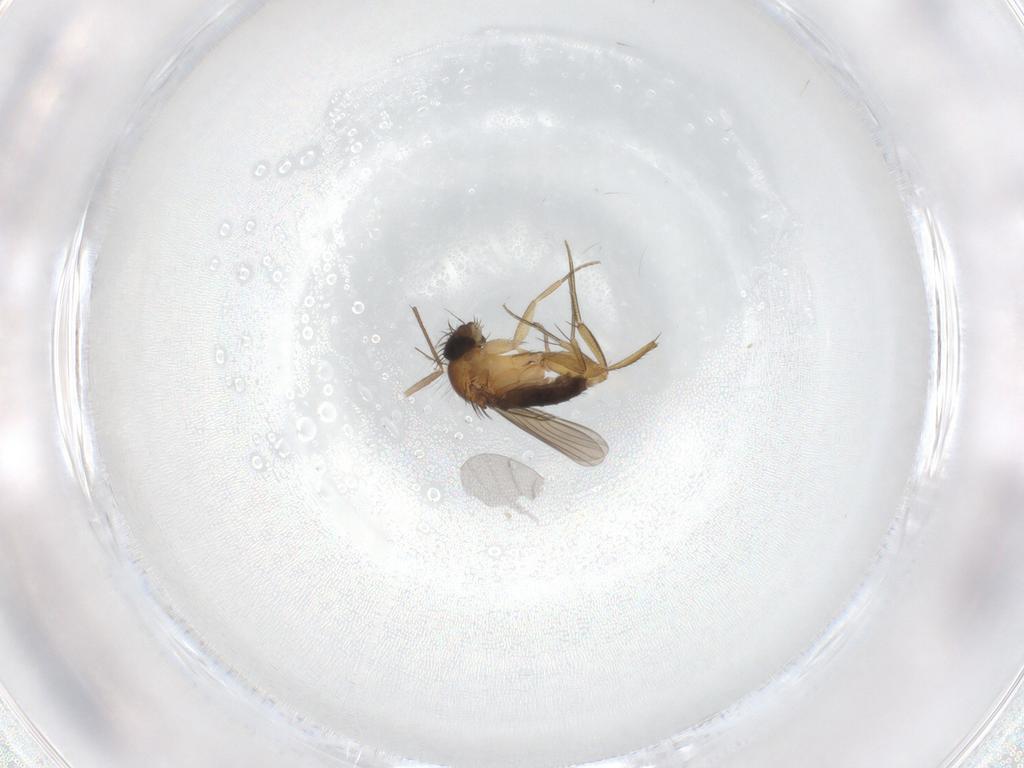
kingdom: Animalia
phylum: Arthropoda
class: Insecta
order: Diptera
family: Phoridae
